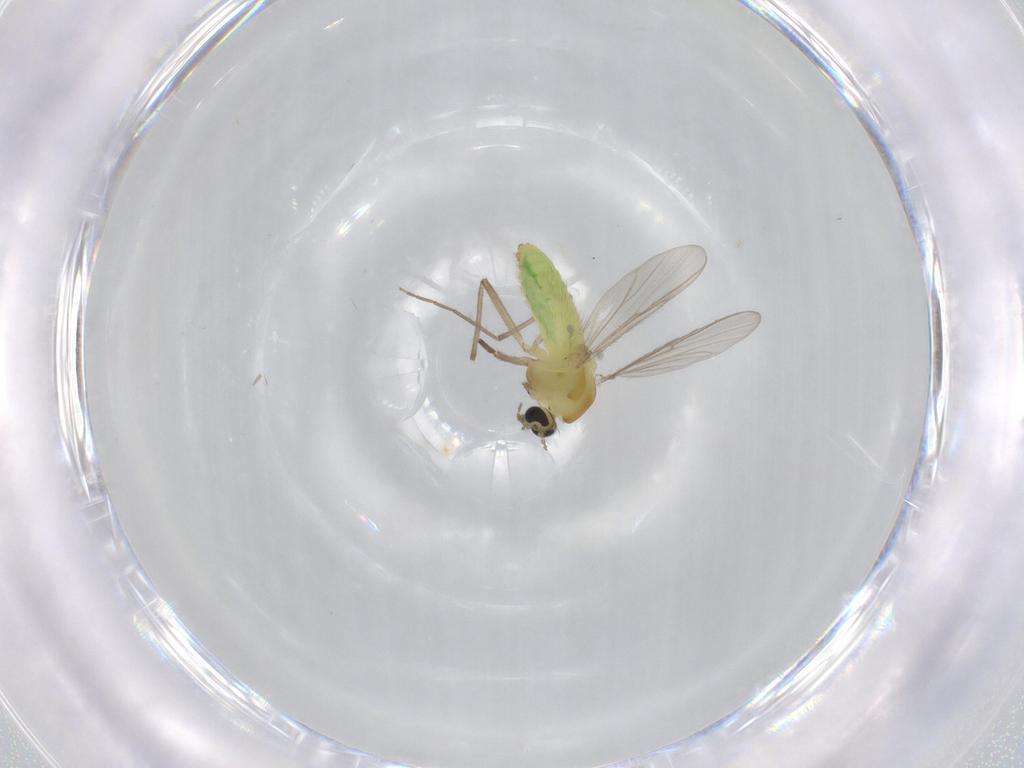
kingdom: Animalia
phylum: Arthropoda
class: Insecta
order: Diptera
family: Chironomidae
